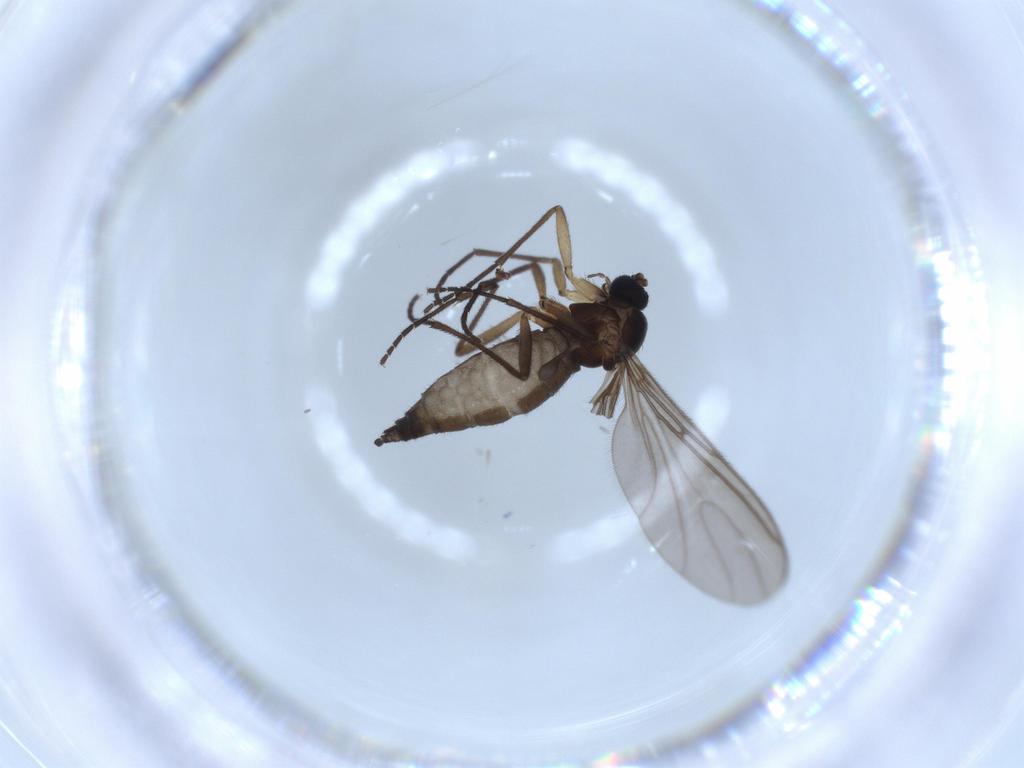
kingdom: Animalia
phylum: Arthropoda
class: Insecta
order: Diptera
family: Sciaridae
